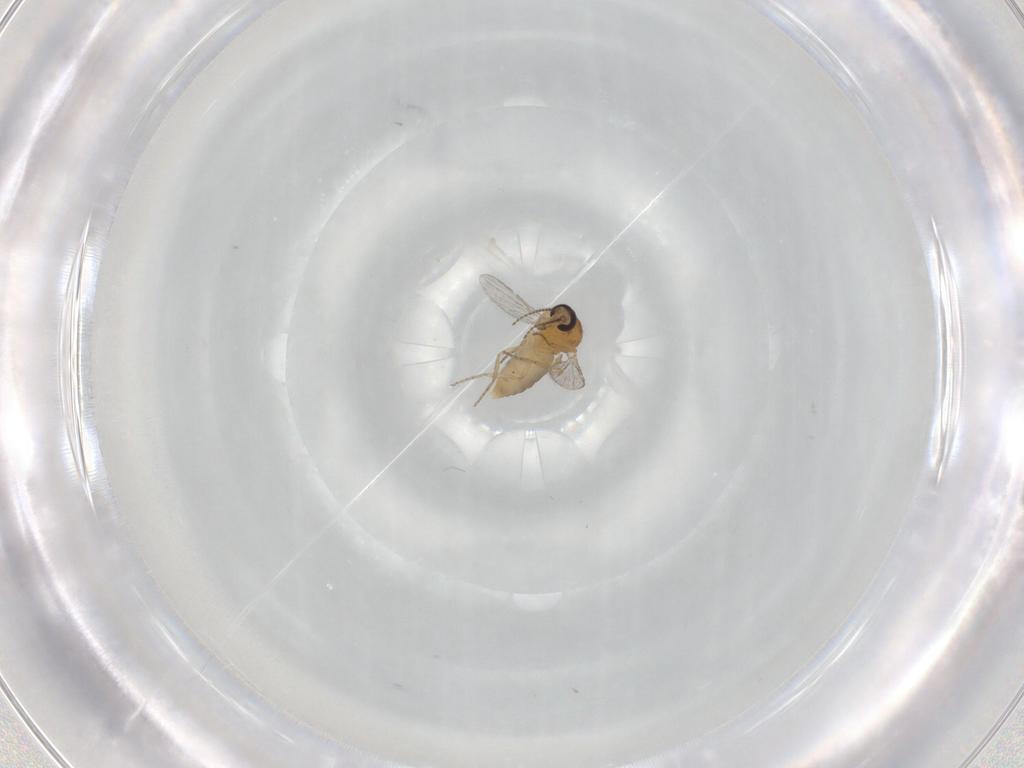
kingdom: Animalia
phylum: Arthropoda
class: Insecta
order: Diptera
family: Ceratopogonidae
